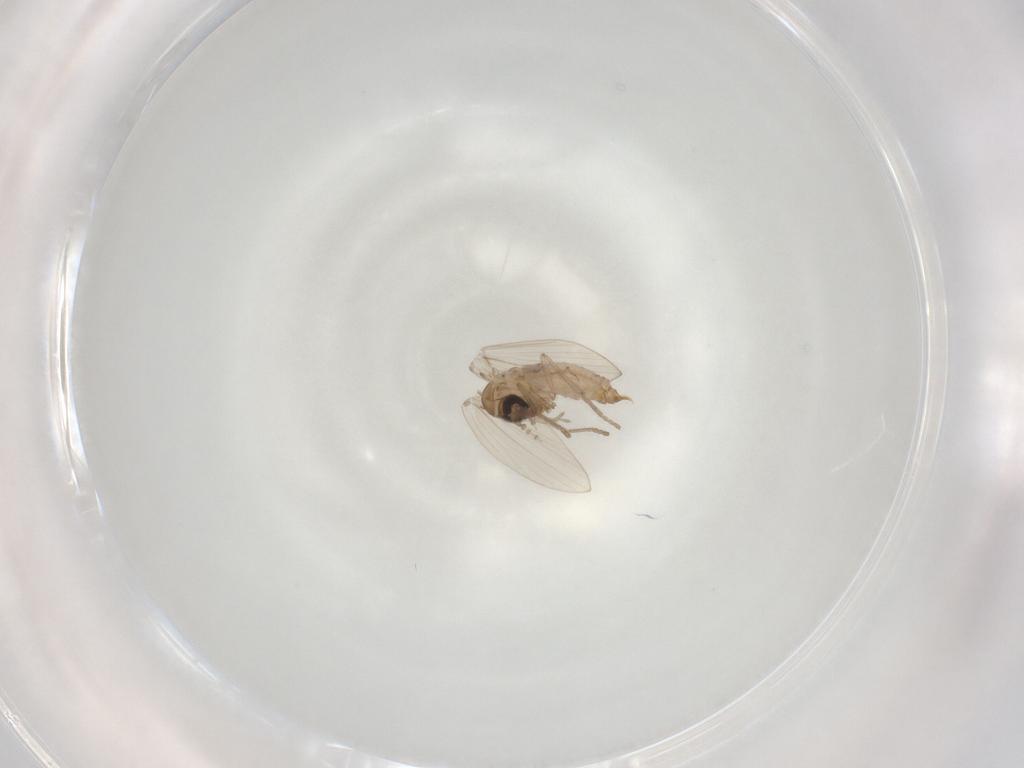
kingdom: Animalia
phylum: Arthropoda
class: Insecta
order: Diptera
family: Psychodidae
